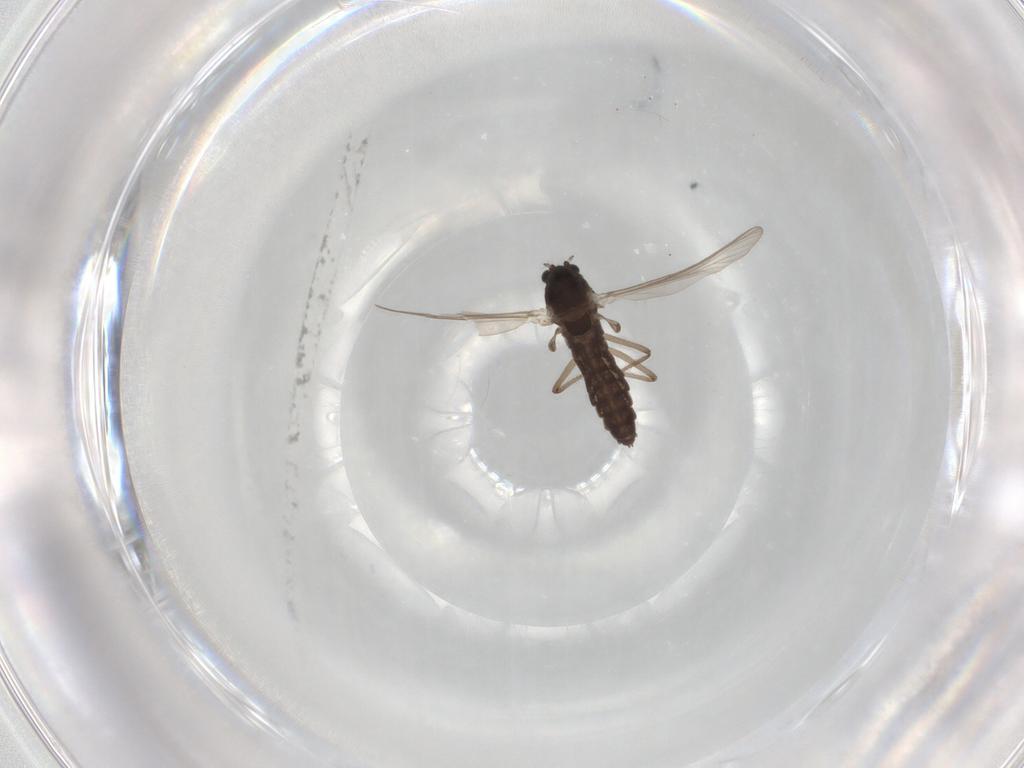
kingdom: Animalia
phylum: Arthropoda
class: Insecta
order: Diptera
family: Chironomidae
